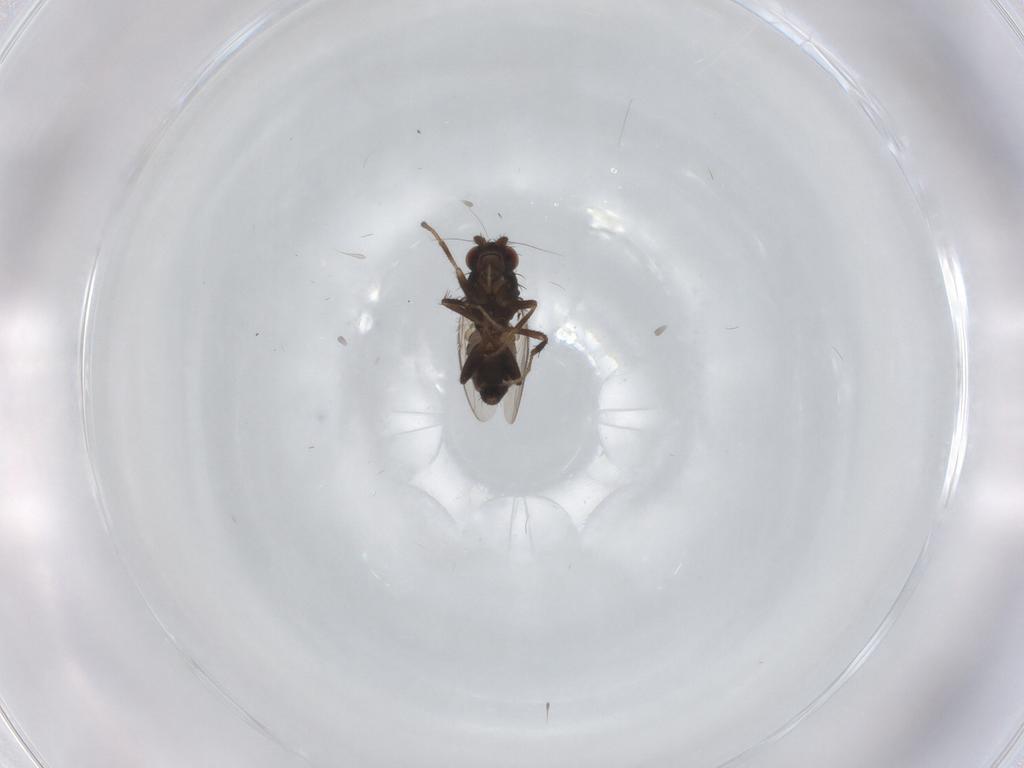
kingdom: Animalia
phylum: Arthropoda
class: Insecta
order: Diptera
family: Sphaeroceridae
